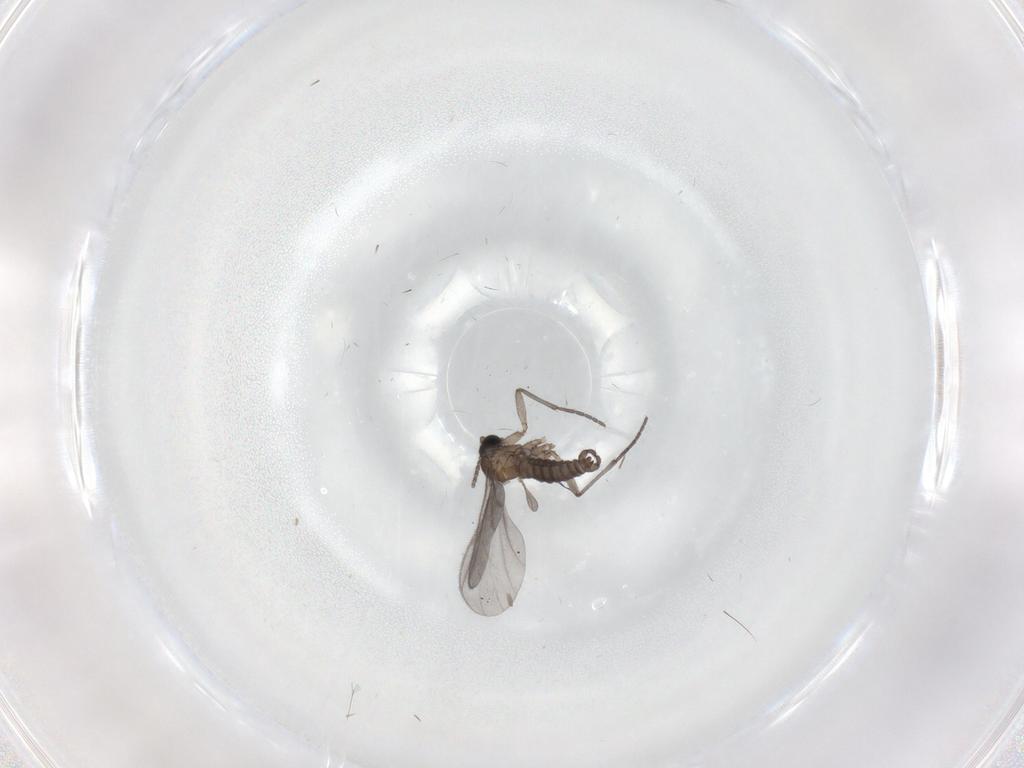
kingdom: Animalia
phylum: Arthropoda
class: Insecta
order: Diptera
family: Sciaridae
